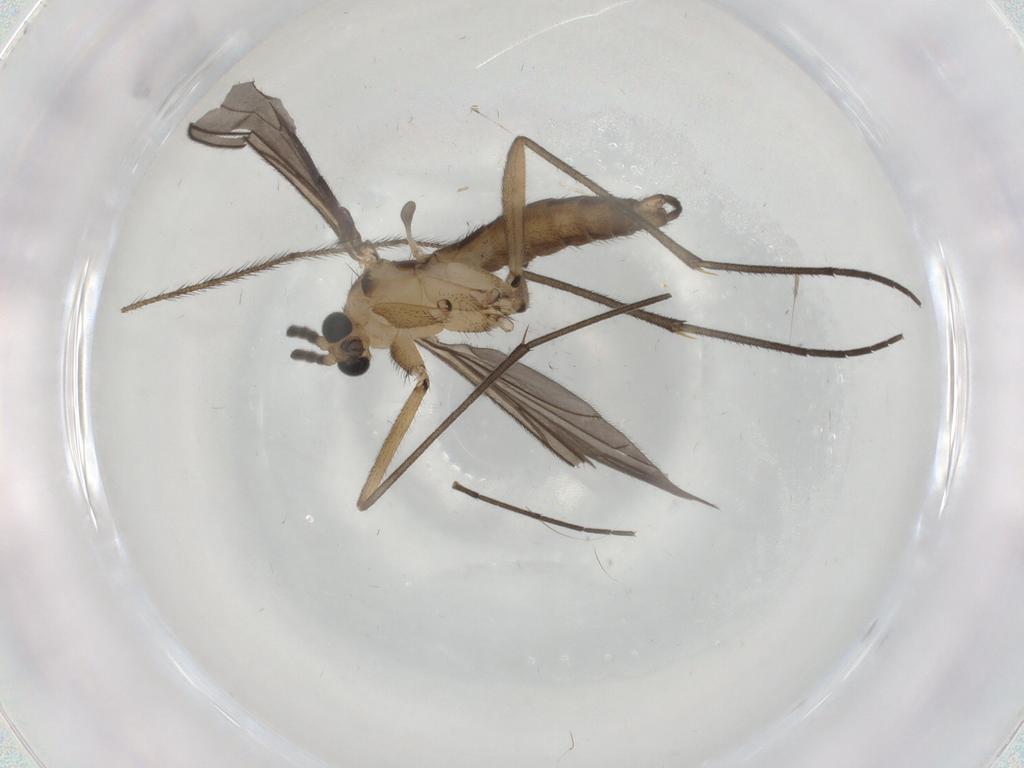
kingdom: Animalia
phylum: Arthropoda
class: Insecta
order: Diptera
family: Limoniidae
